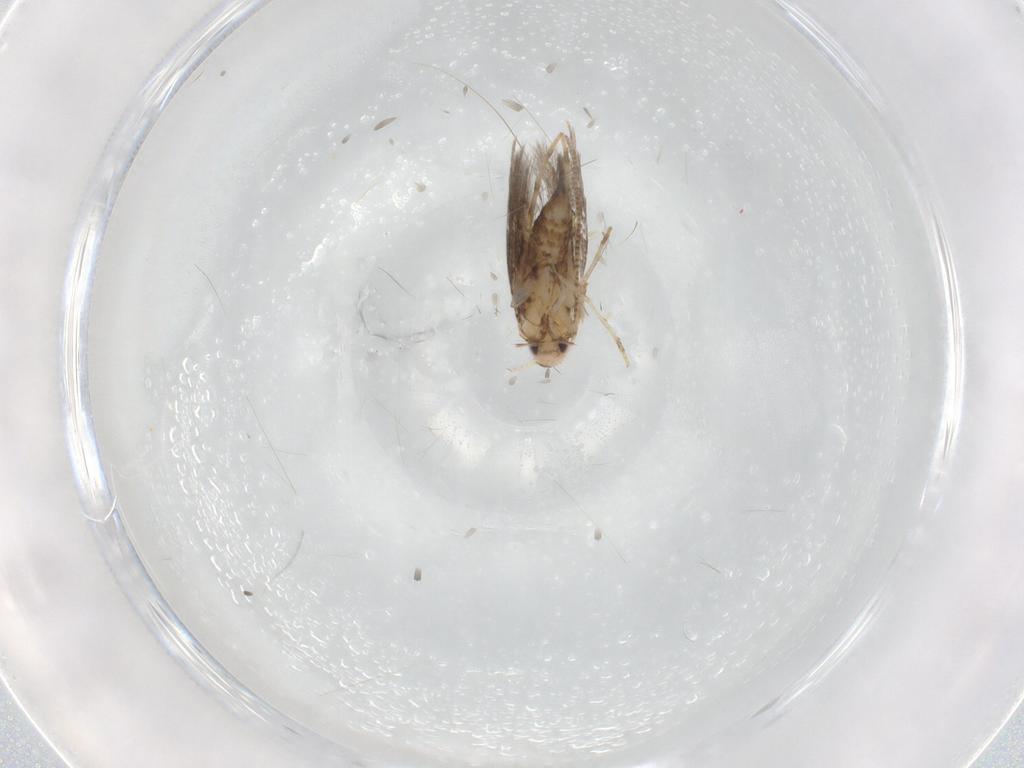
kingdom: Animalia
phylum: Arthropoda
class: Insecta
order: Lepidoptera
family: Gracillariidae
